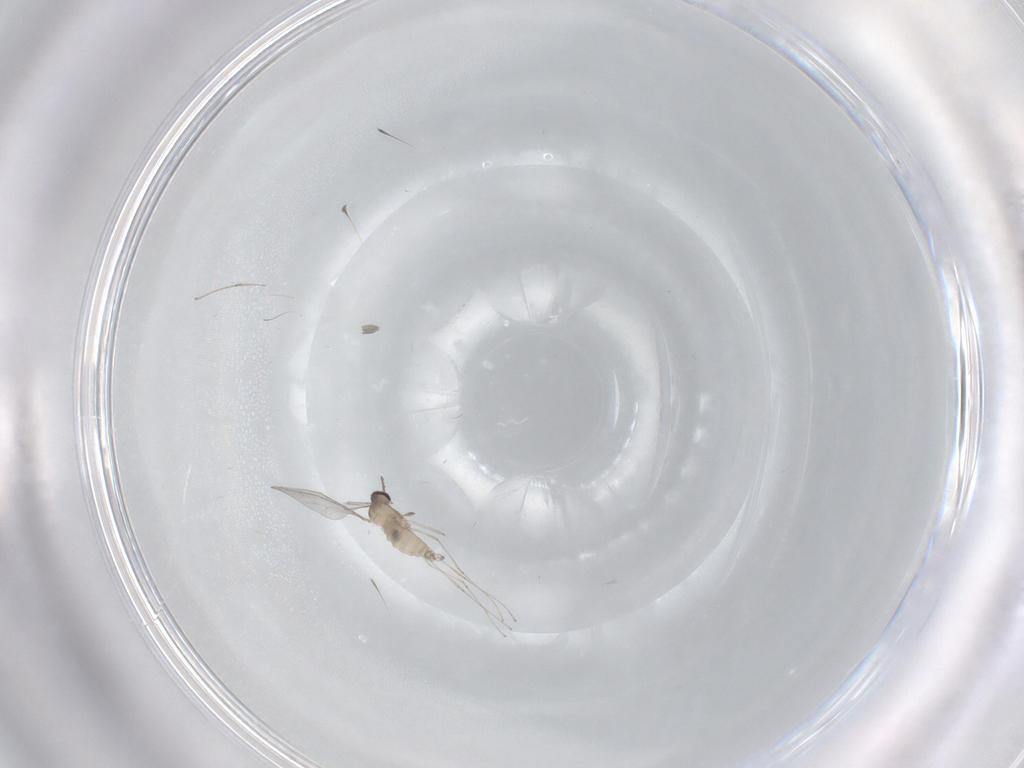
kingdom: Animalia
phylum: Arthropoda
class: Insecta
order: Diptera
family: Cecidomyiidae
